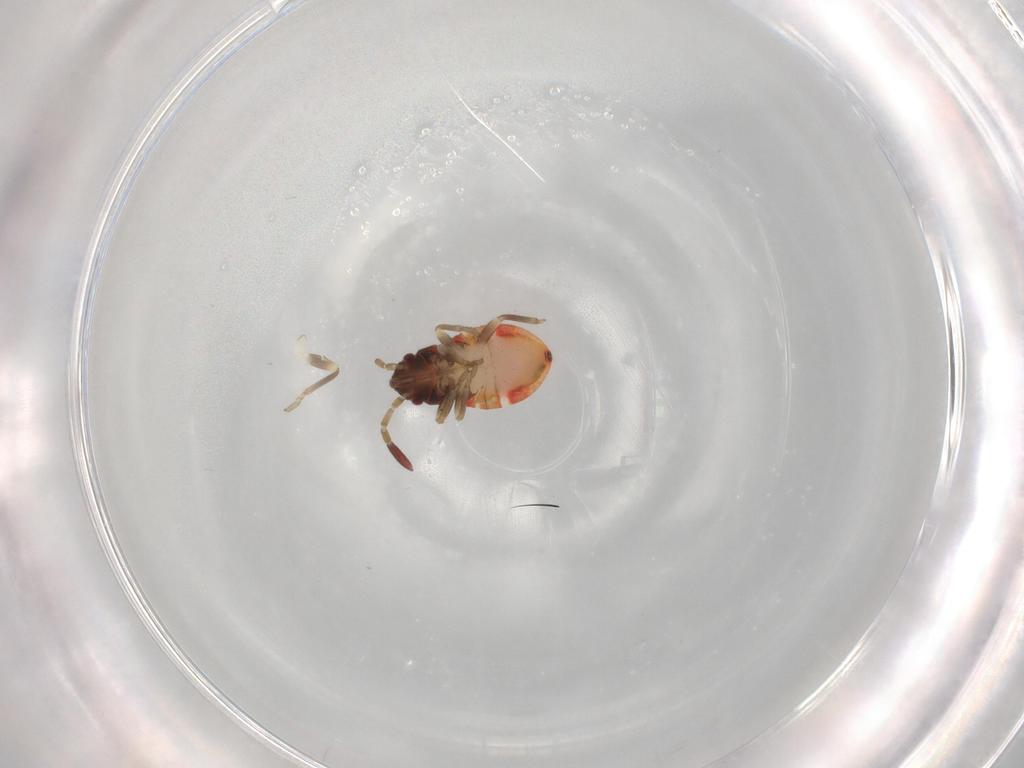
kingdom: Animalia
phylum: Arthropoda
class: Insecta
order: Hemiptera
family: Rhyparochromidae
